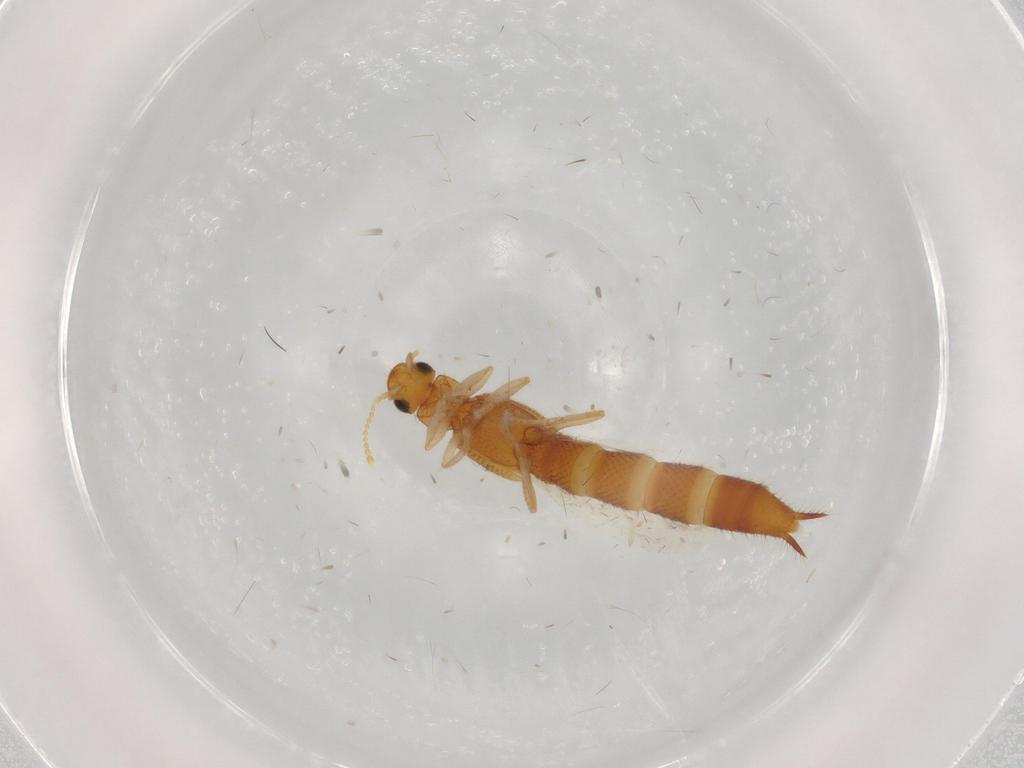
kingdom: Animalia
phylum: Arthropoda
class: Insecta
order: Coleoptera
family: Staphylinidae
